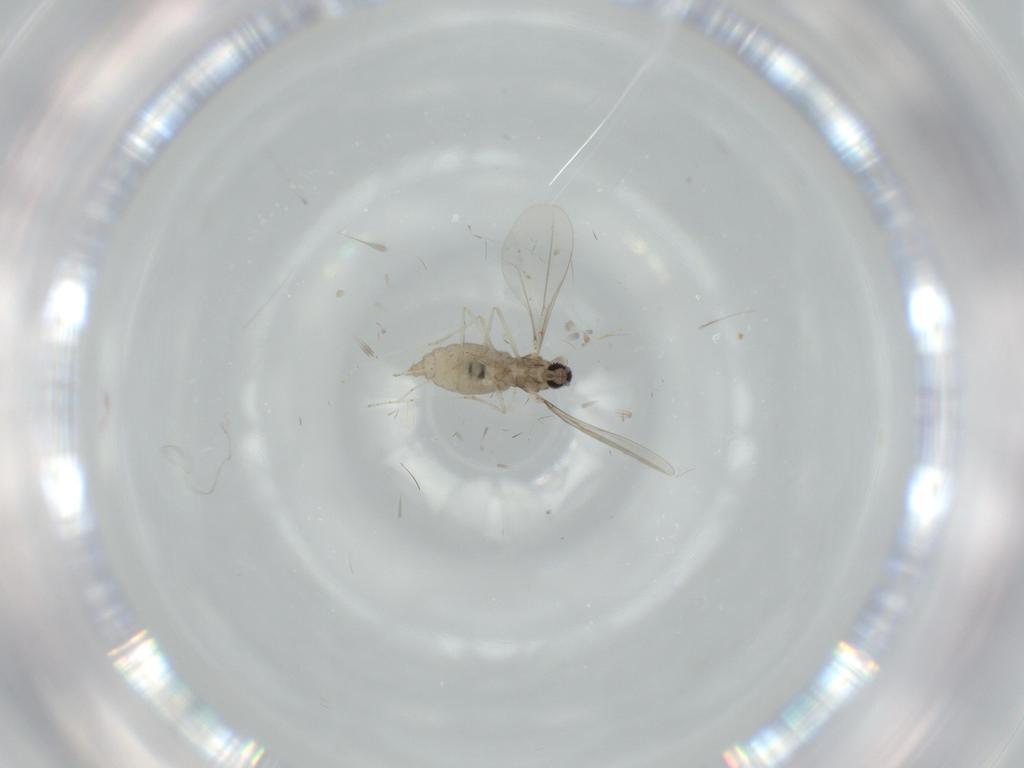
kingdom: Animalia
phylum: Arthropoda
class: Insecta
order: Diptera
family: Cecidomyiidae
